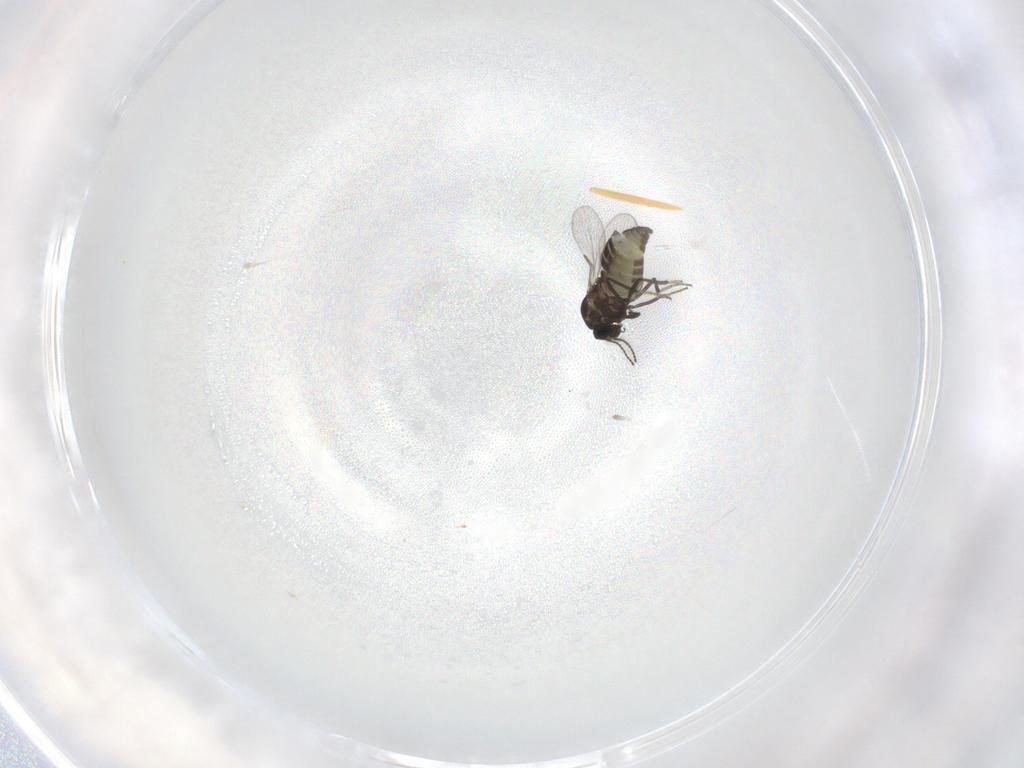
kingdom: Animalia
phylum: Arthropoda
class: Insecta
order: Diptera
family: Ceratopogonidae
